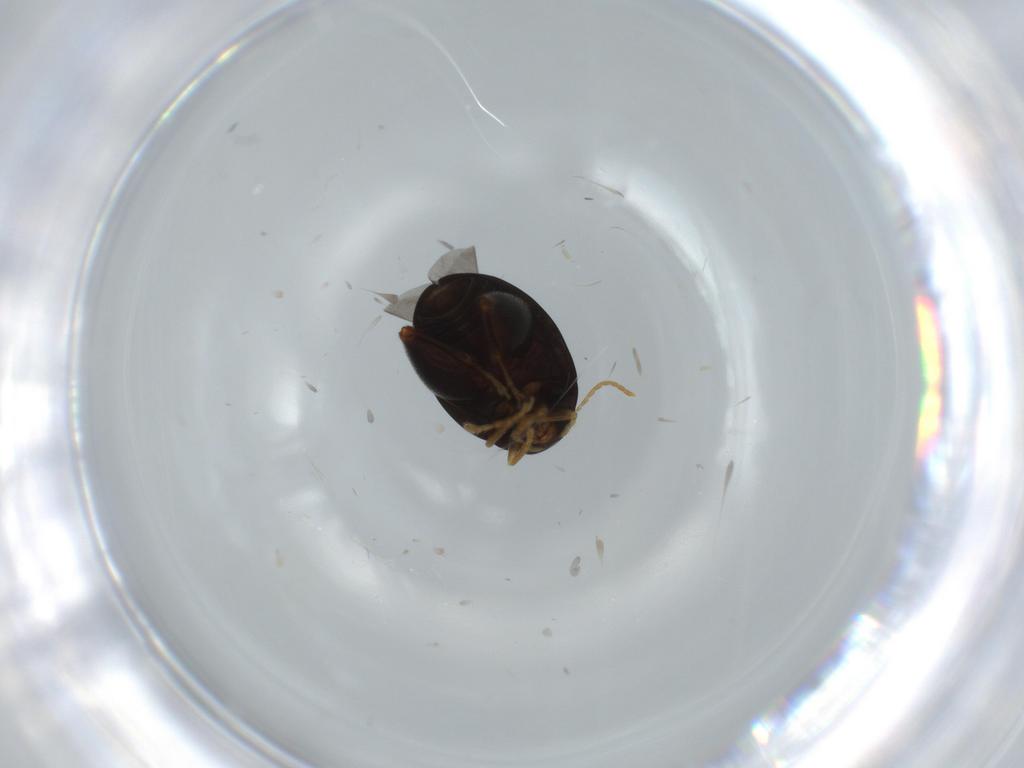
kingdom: Animalia
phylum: Arthropoda
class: Insecta
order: Coleoptera
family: Chrysomelidae
